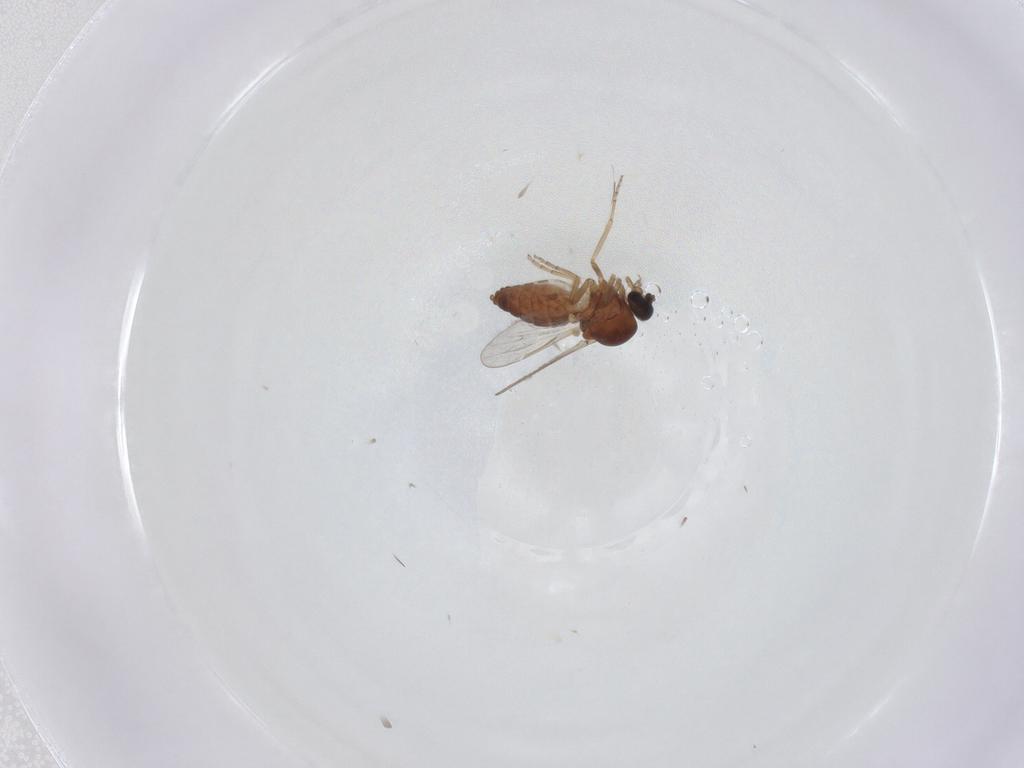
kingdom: Animalia
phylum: Arthropoda
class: Insecta
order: Diptera
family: Ceratopogonidae
